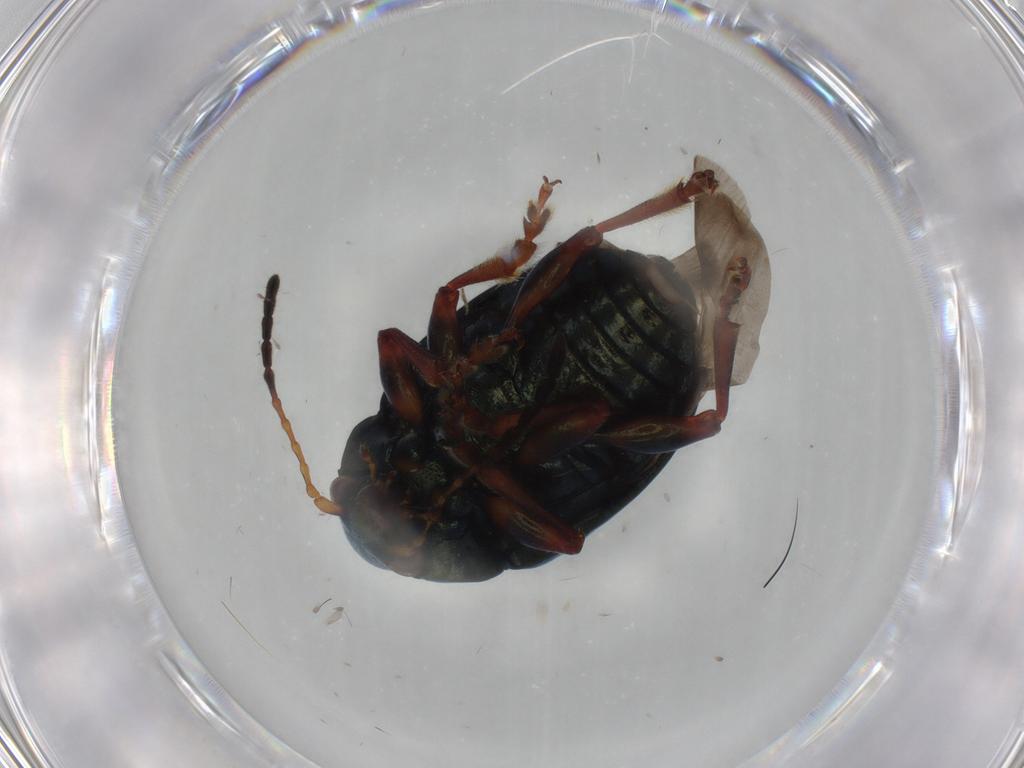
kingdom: Animalia
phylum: Arthropoda
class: Insecta
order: Coleoptera
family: Chrysomelidae
